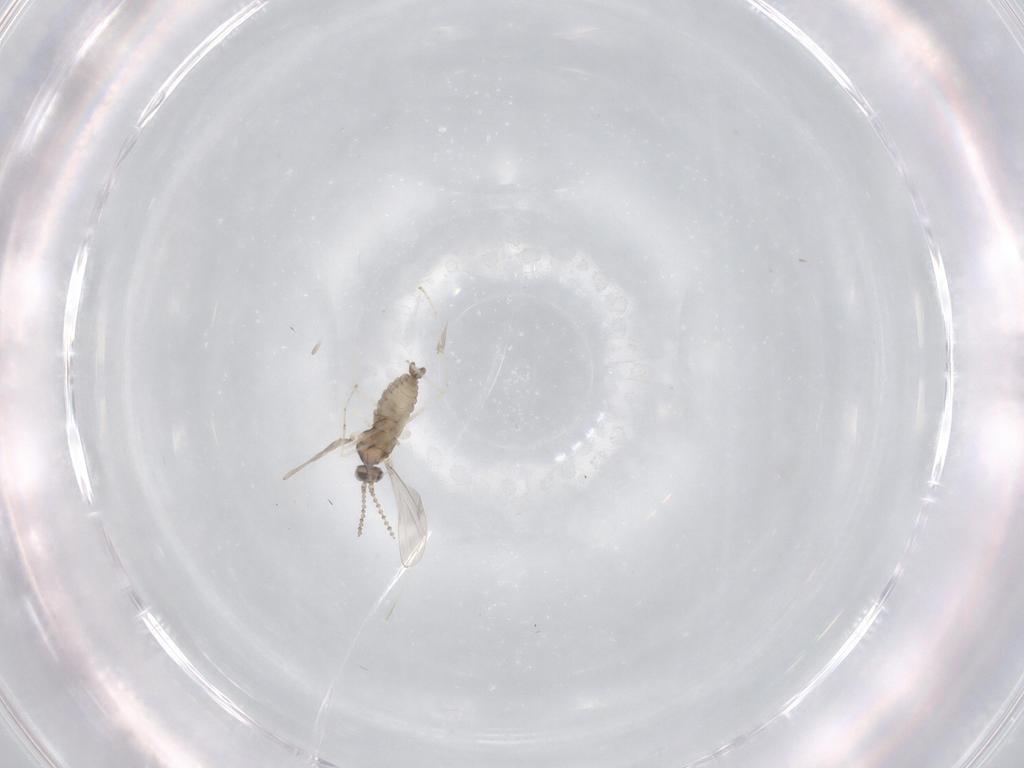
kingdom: Animalia
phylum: Arthropoda
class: Insecta
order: Diptera
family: Cecidomyiidae
